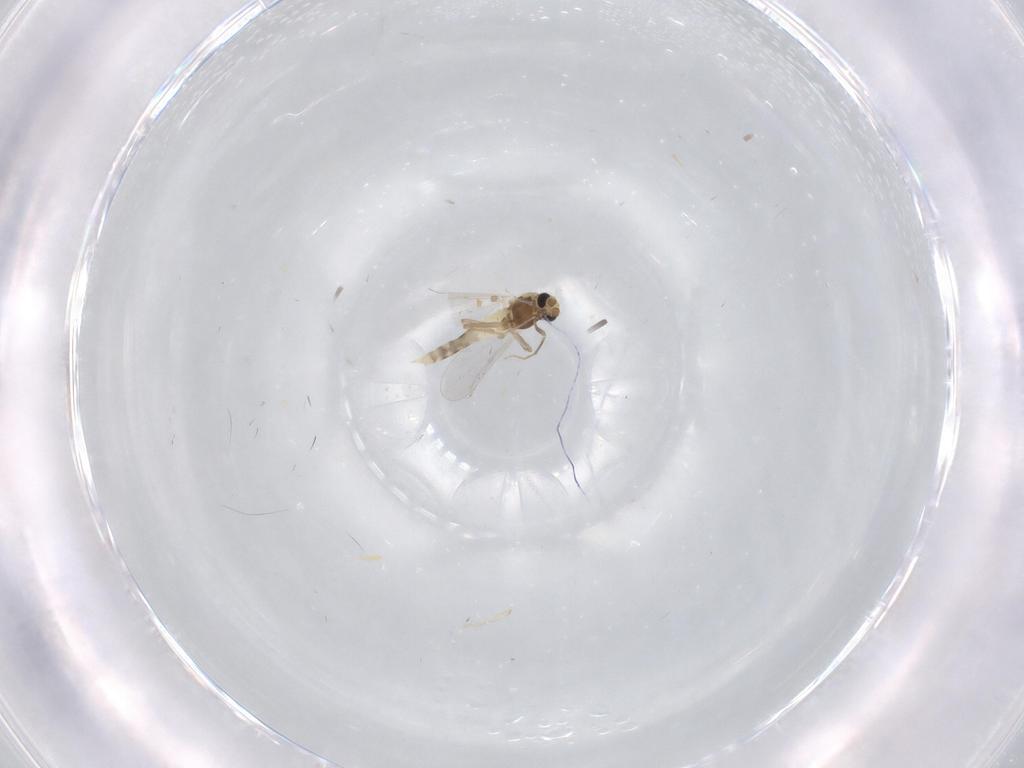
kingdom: Animalia
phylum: Arthropoda
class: Insecta
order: Diptera
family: Chironomidae
